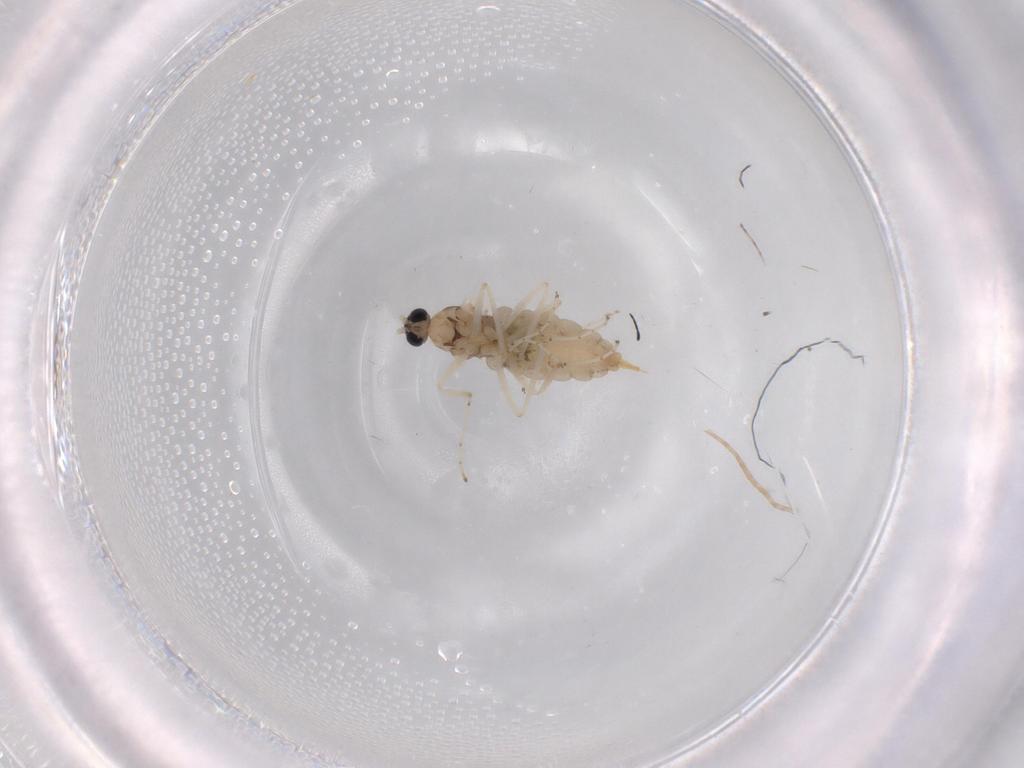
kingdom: Animalia
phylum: Arthropoda
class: Insecta
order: Diptera
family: Cecidomyiidae
